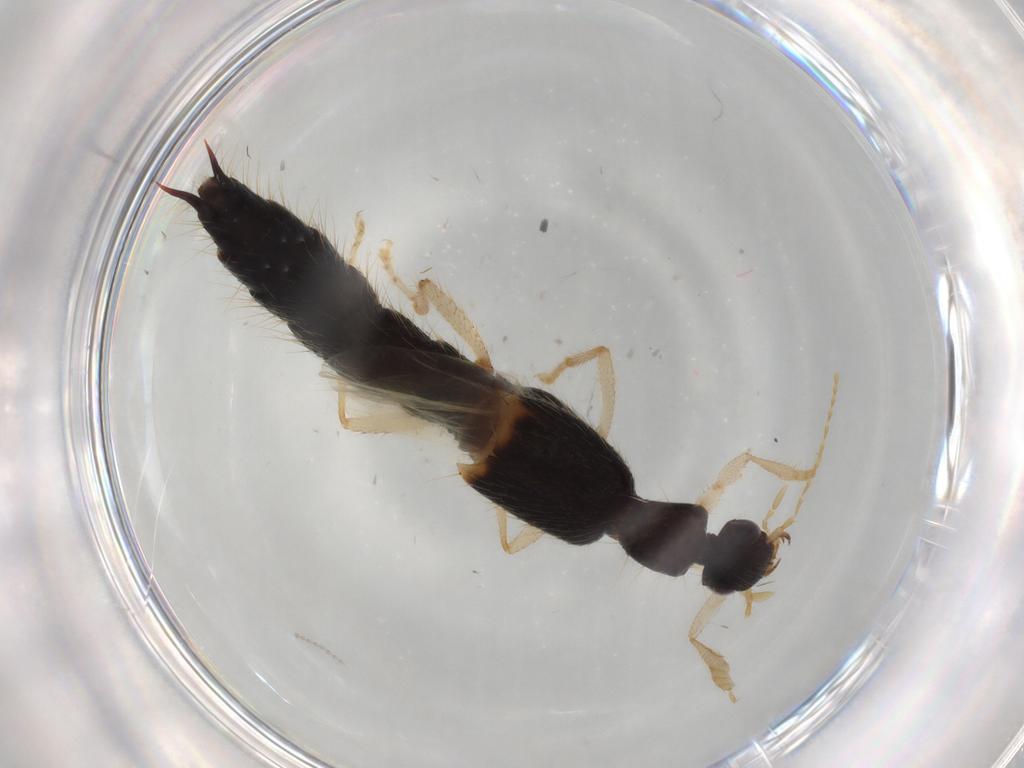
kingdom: Animalia
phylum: Arthropoda
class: Insecta
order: Coleoptera
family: Staphylinidae
